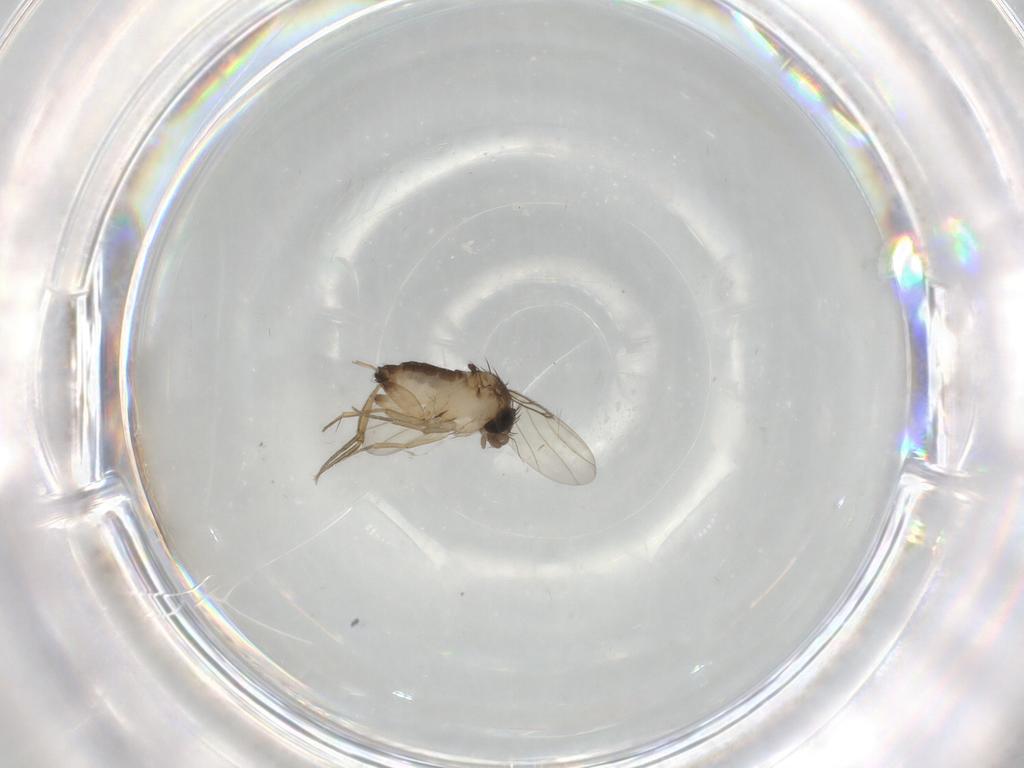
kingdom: Animalia
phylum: Arthropoda
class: Insecta
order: Diptera
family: Phoridae
